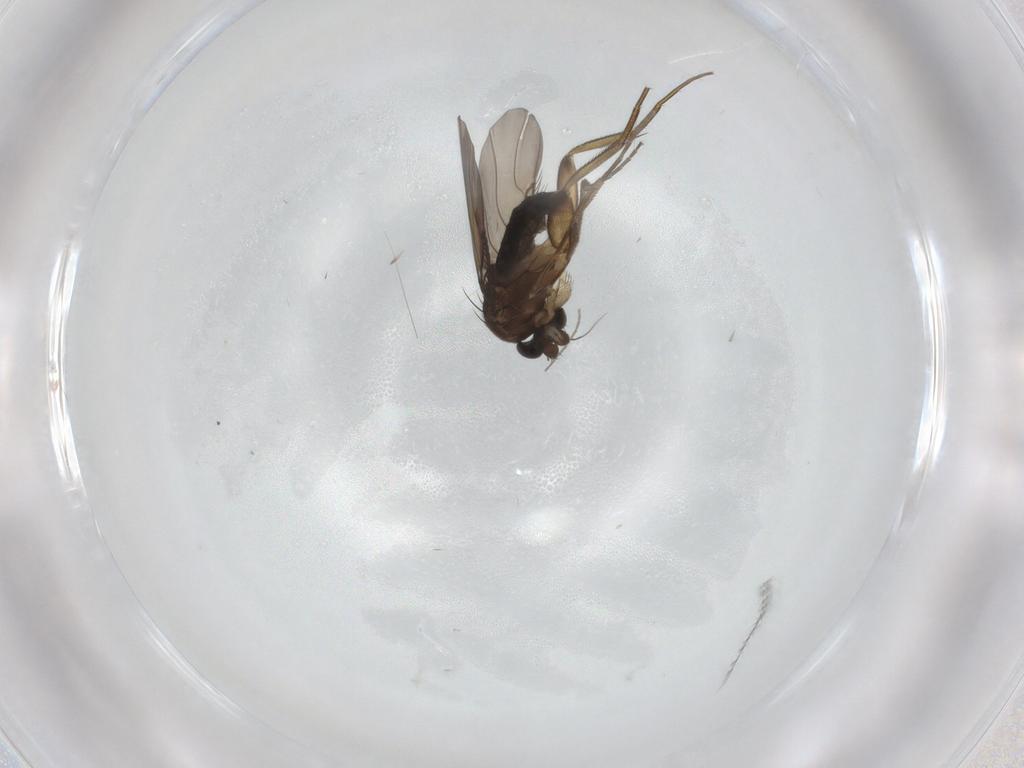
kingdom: Animalia
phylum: Arthropoda
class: Insecta
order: Diptera
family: Phoridae
